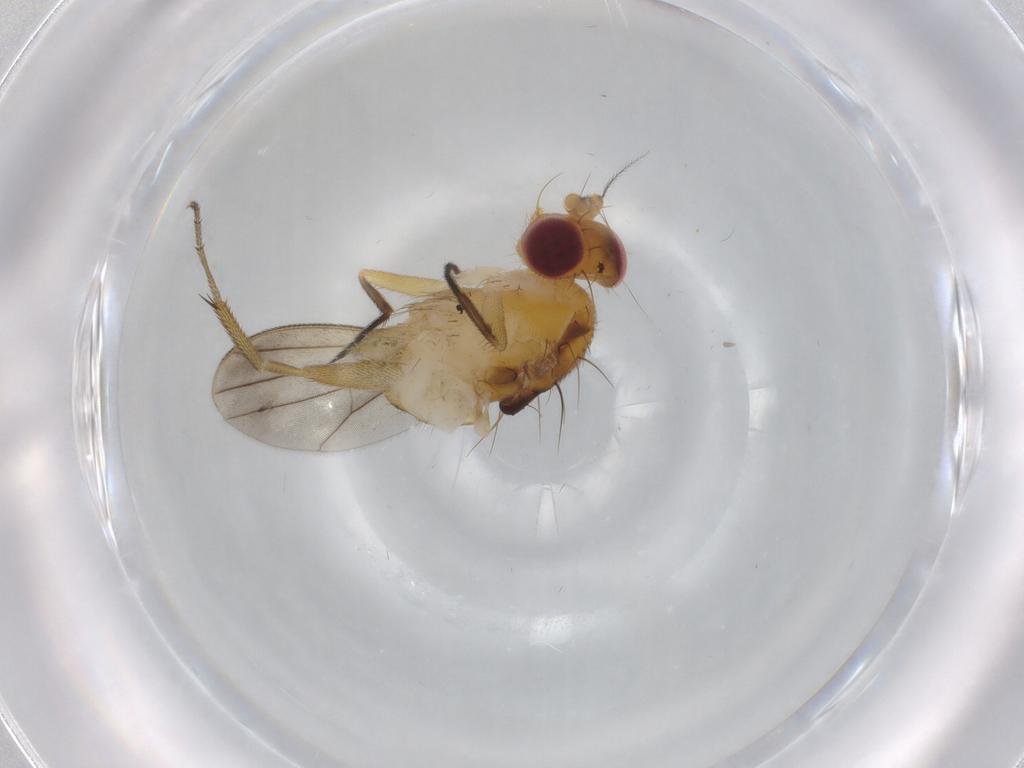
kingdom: Animalia
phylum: Arthropoda
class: Insecta
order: Diptera
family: Clusiidae
